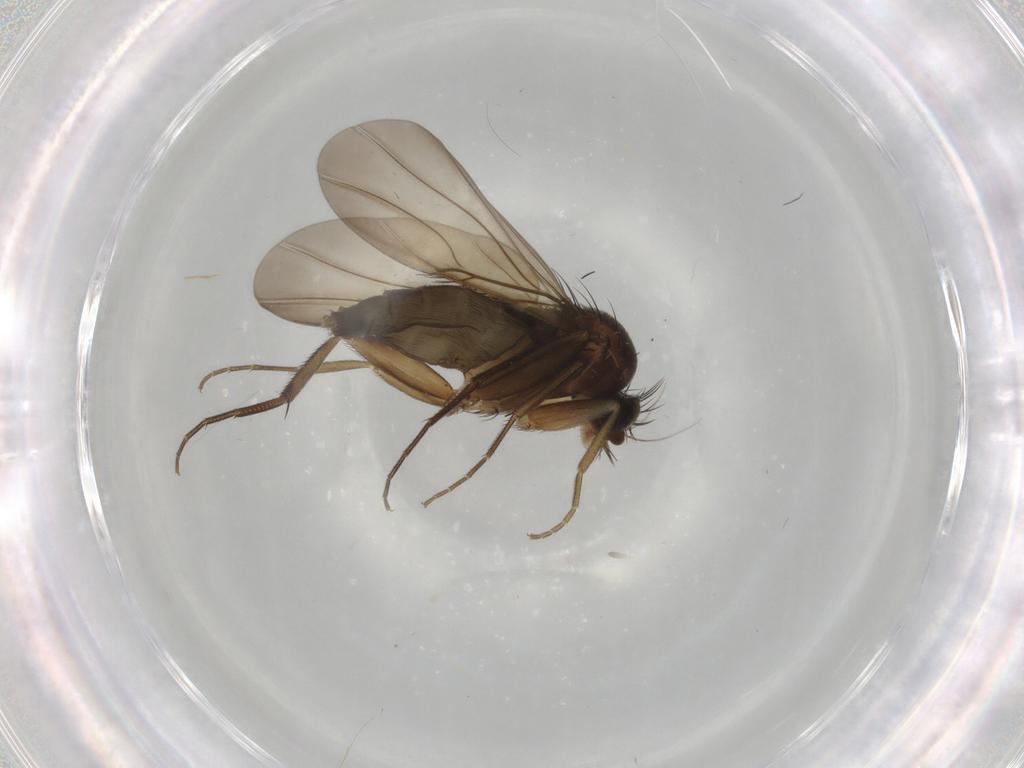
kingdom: Animalia
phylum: Arthropoda
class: Insecta
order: Diptera
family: Phoridae
